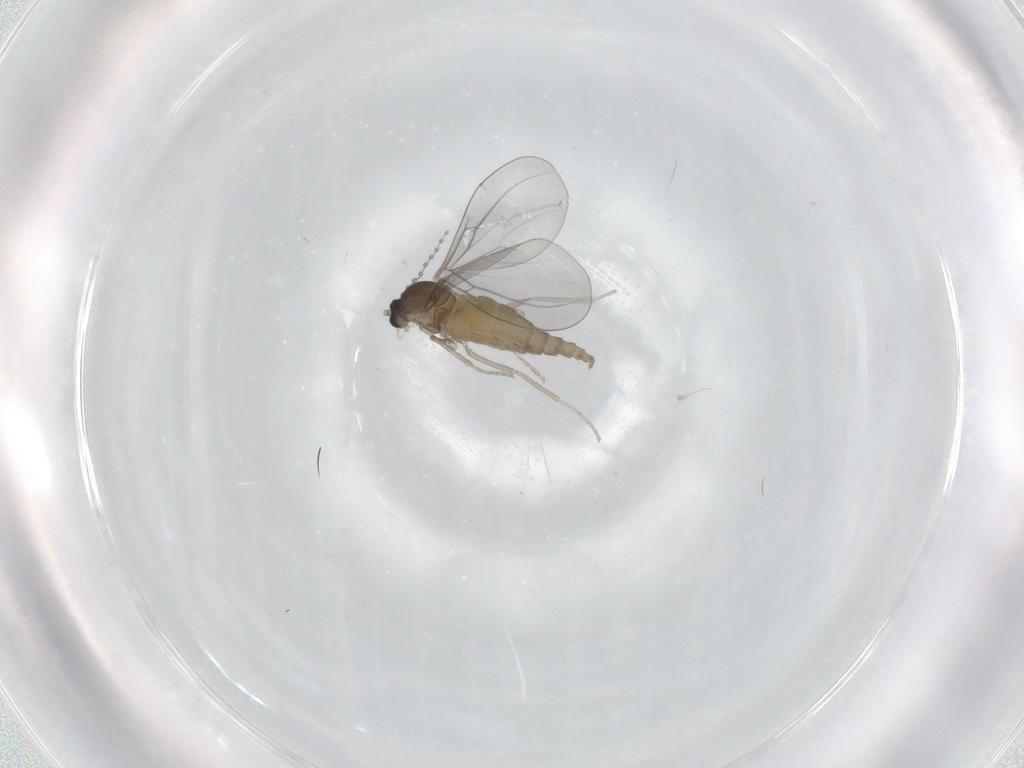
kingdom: Animalia
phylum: Arthropoda
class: Insecta
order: Diptera
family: Cecidomyiidae
